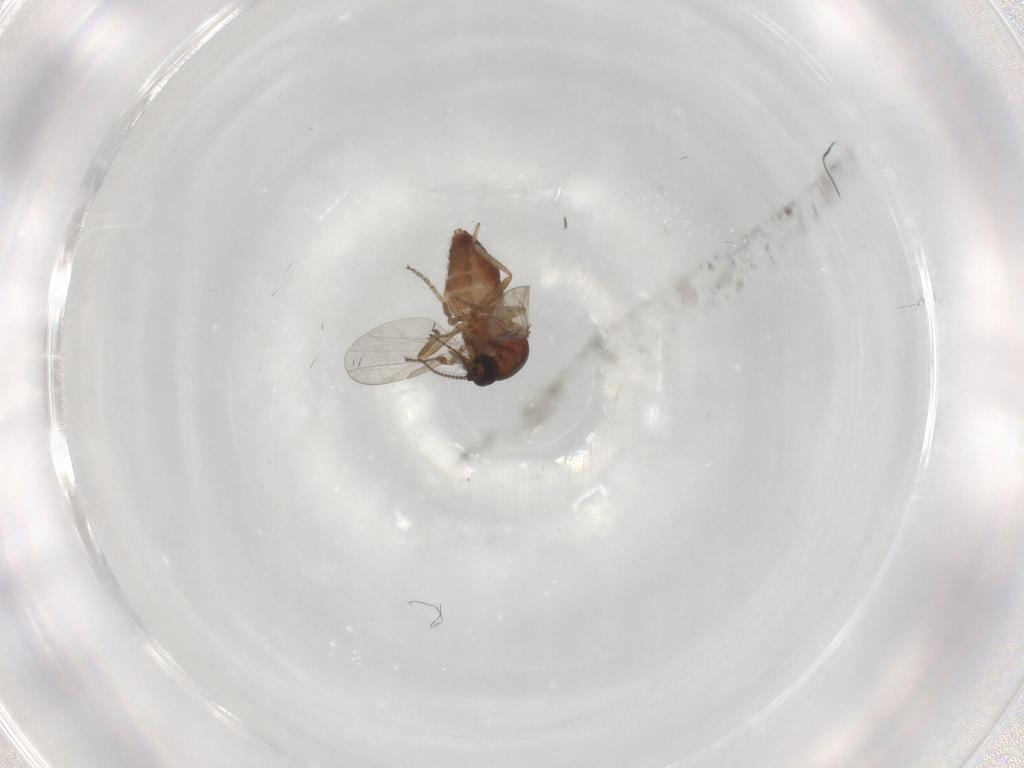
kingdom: Animalia
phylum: Arthropoda
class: Insecta
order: Diptera
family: Ceratopogonidae
